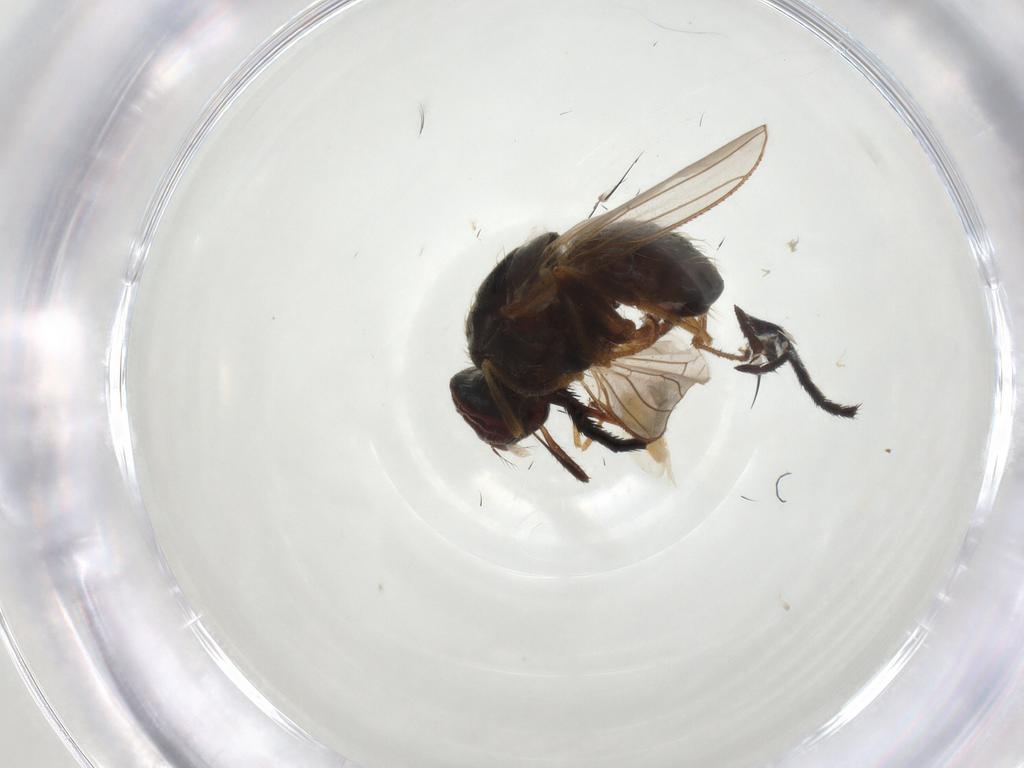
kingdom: Animalia
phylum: Arthropoda
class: Insecta
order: Diptera
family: Muscidae
